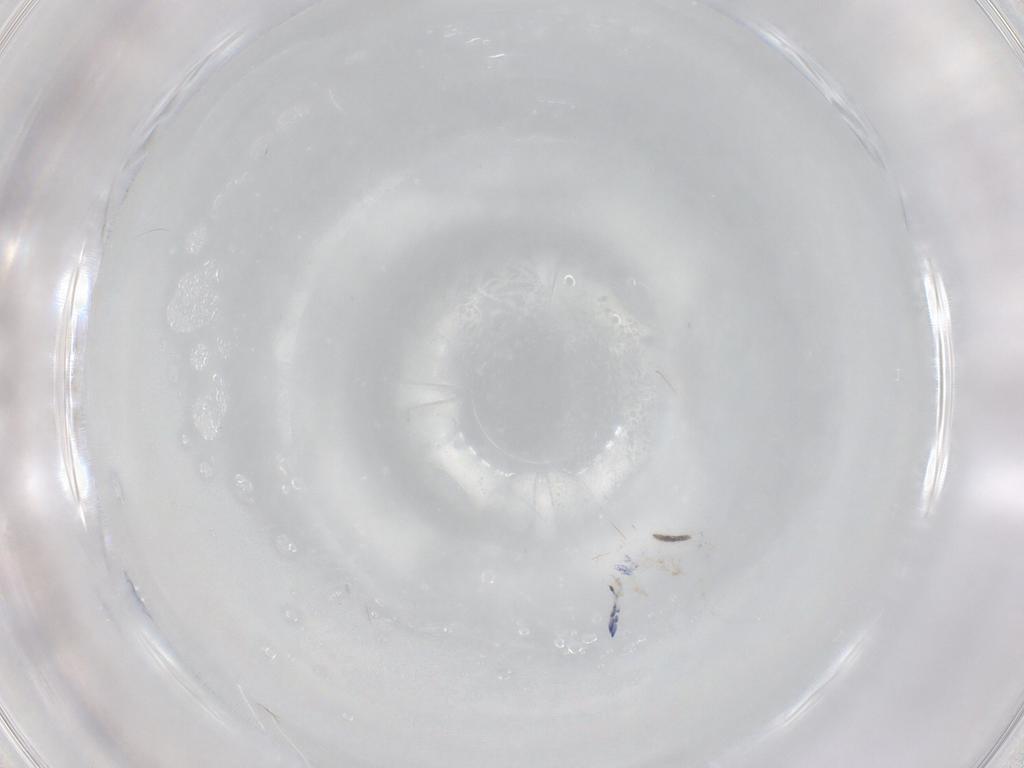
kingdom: Animalia
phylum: Arthropoda
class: Collembola
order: Entomobryomorpha
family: Entomobryidae
